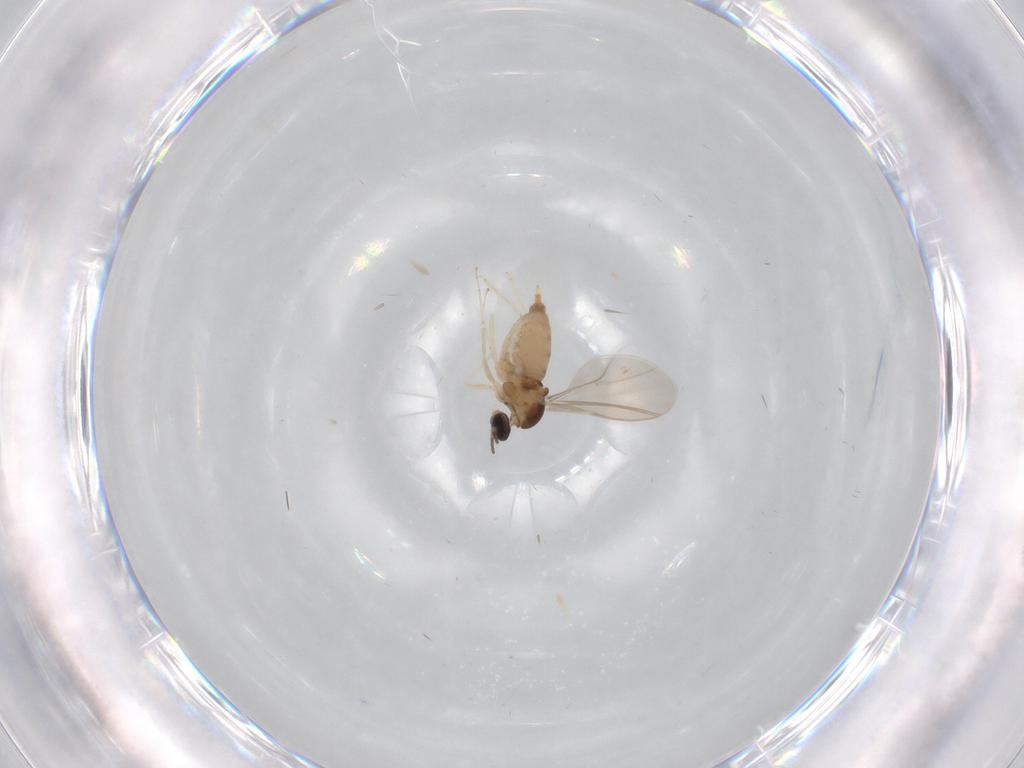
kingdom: Animalia
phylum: Arthropoda
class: Insecta
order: Diptera
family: Cecidomyiidae
